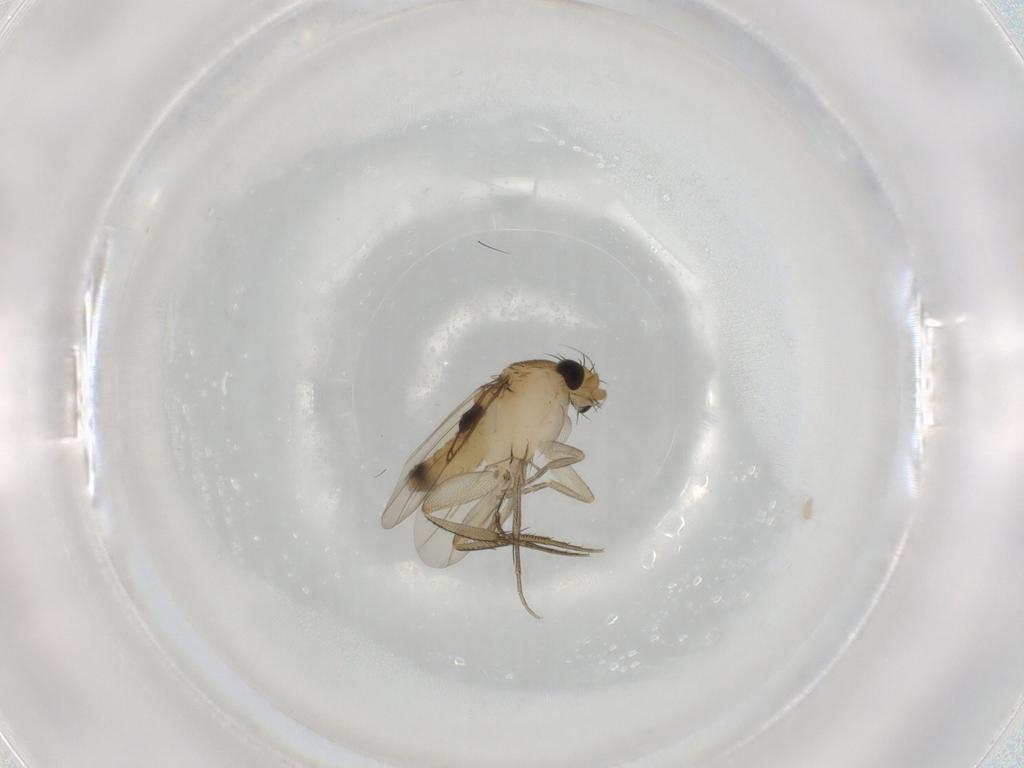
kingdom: Animalia
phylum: Arthropoda
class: Insecta
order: Diptera
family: Phoridae
